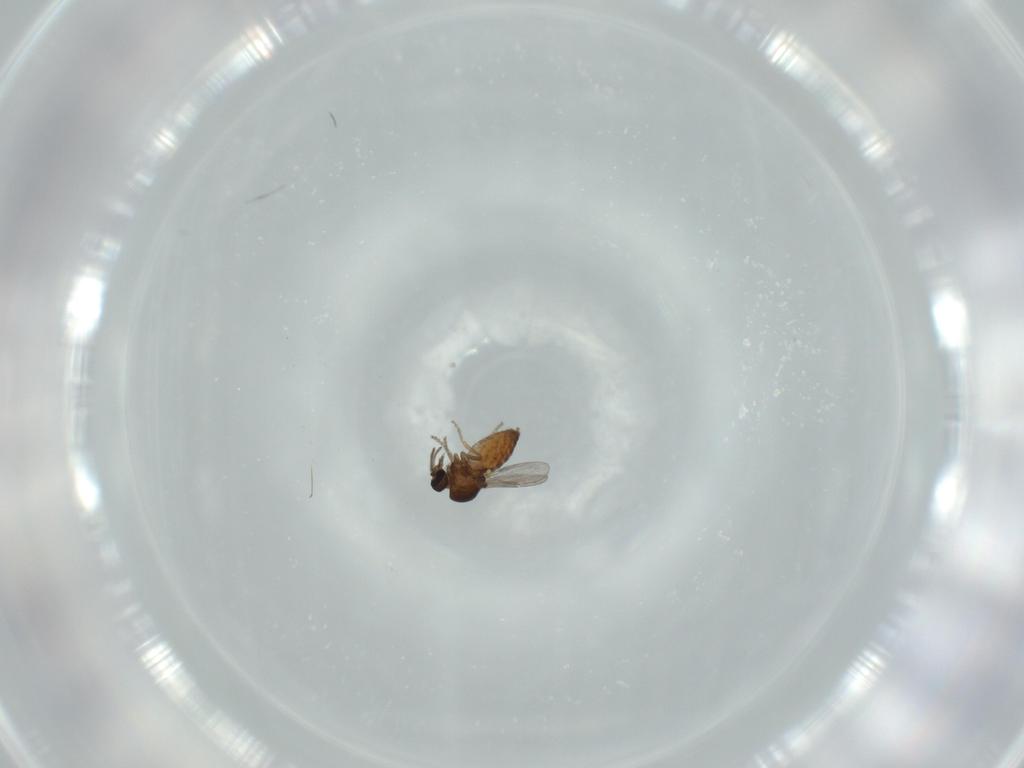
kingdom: Animalia
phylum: Arthropoda
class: Insecta
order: Diptera
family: Ceratopogonidae
